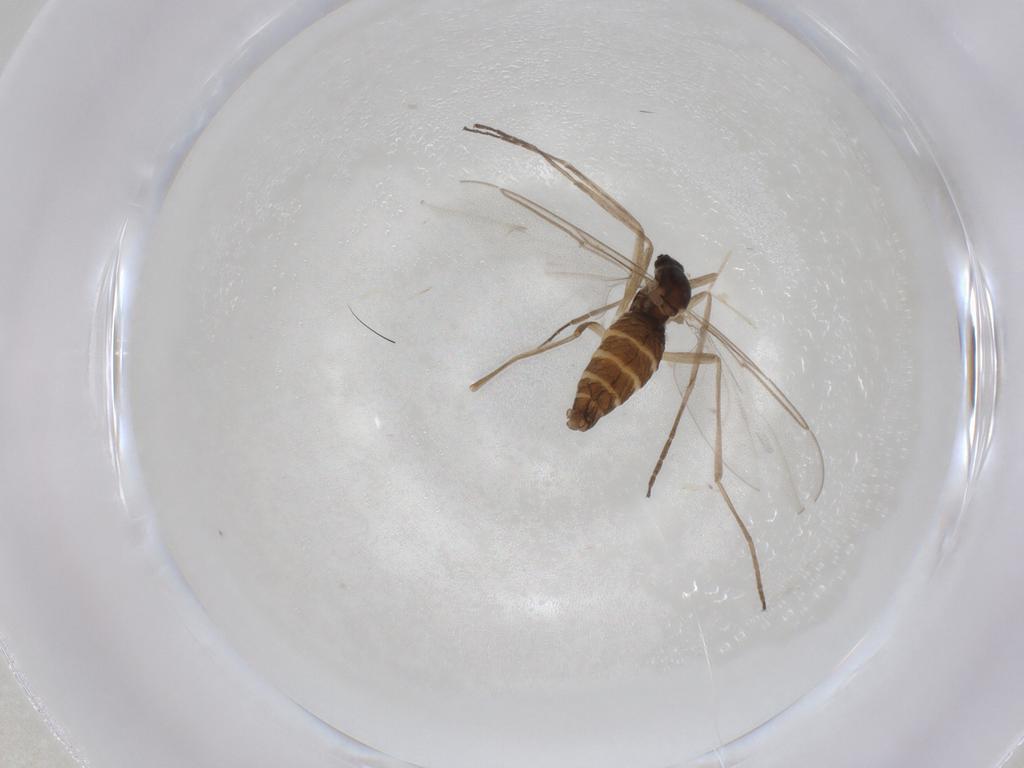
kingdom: Animalia
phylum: Arthropoda
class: Insecta
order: Diptera
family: Cecidomyiidae
